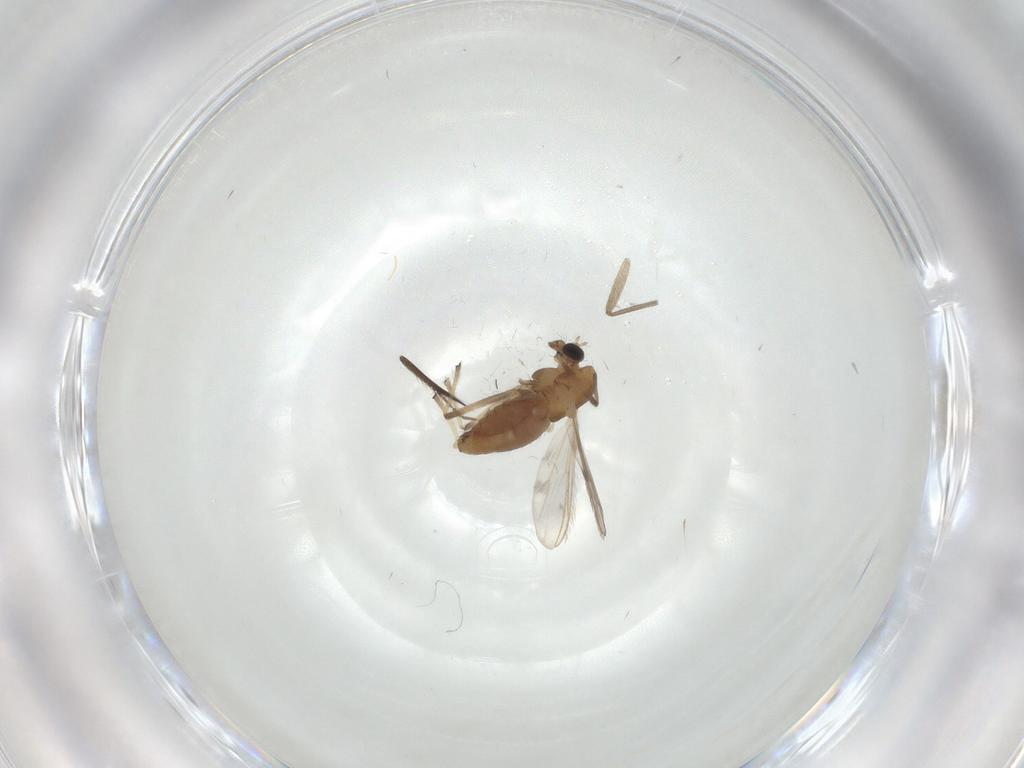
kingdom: Animalia
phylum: Arthropoda
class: Insecta
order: Diptera
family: Chironomidae
